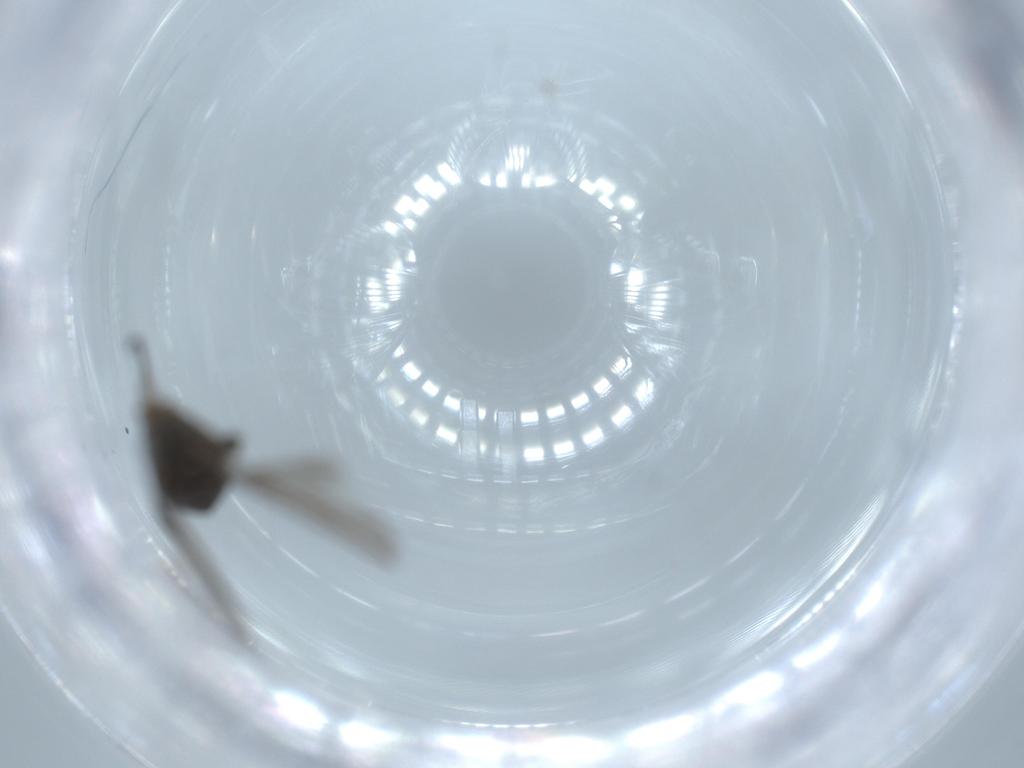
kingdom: Animalia
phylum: Arthropoda
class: Insecta
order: Diptera
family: Sciaridae
